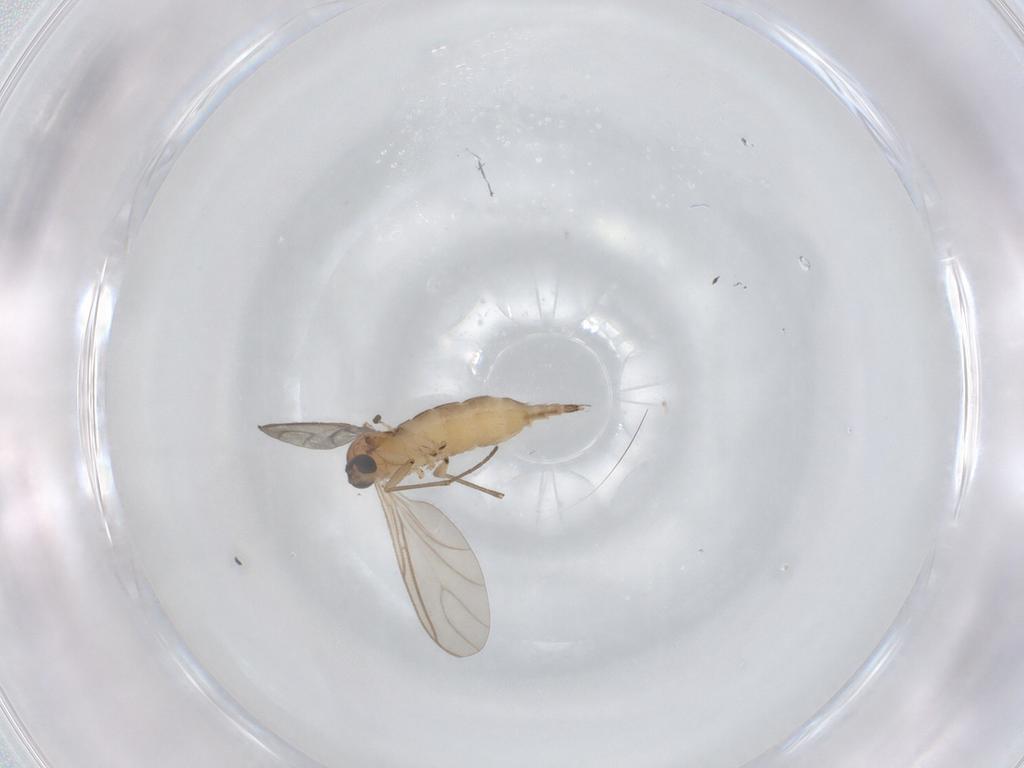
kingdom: Animalia
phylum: Arthropoda
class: Insecta
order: Diptera
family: Sciaridae
